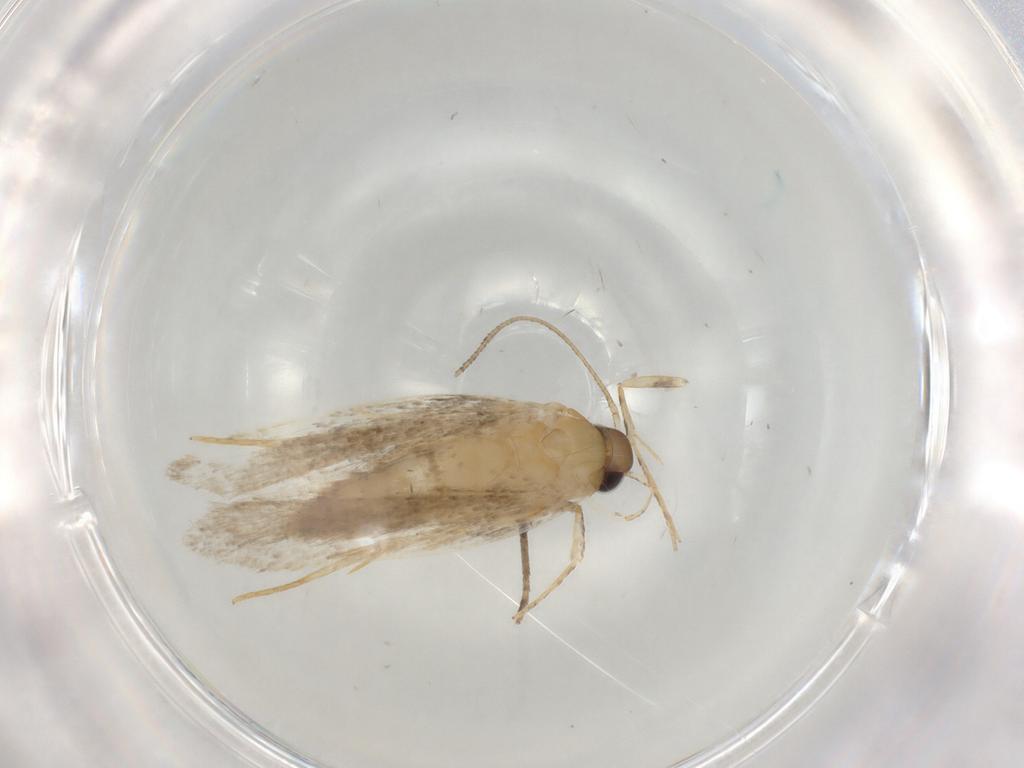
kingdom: Animalia
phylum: Arthropoda
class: Insecta
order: Lepidoptera
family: Autostichidae
